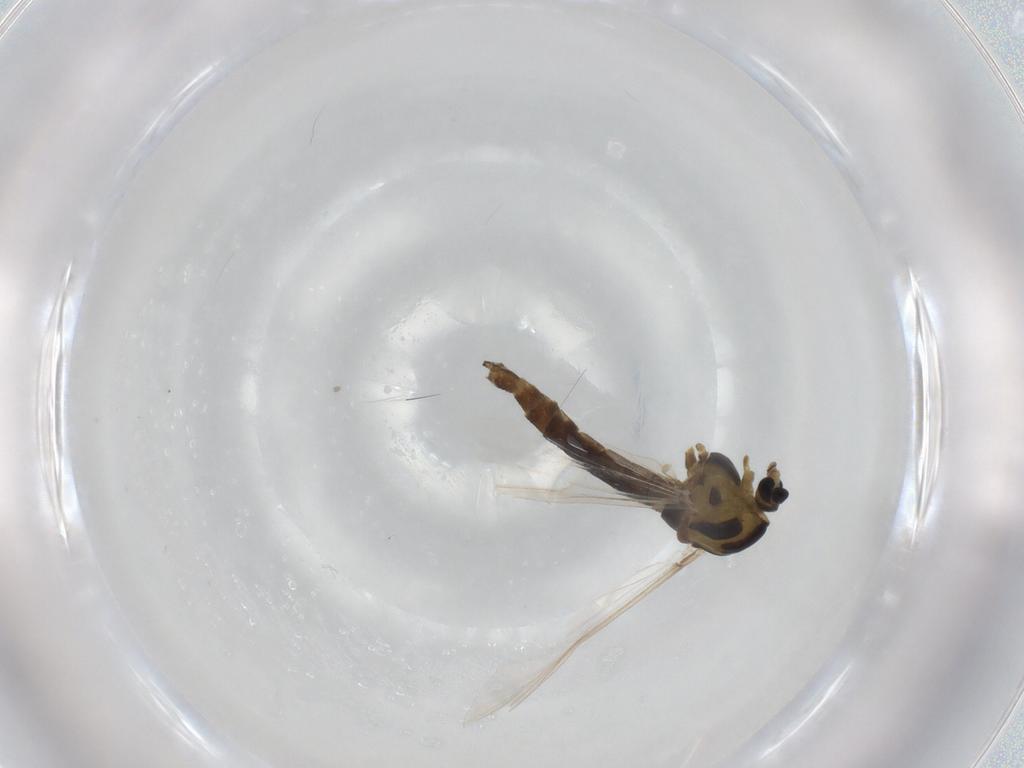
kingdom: Animalia
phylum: Arthropoda
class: Insecta
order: Diptera
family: Chironomidae
